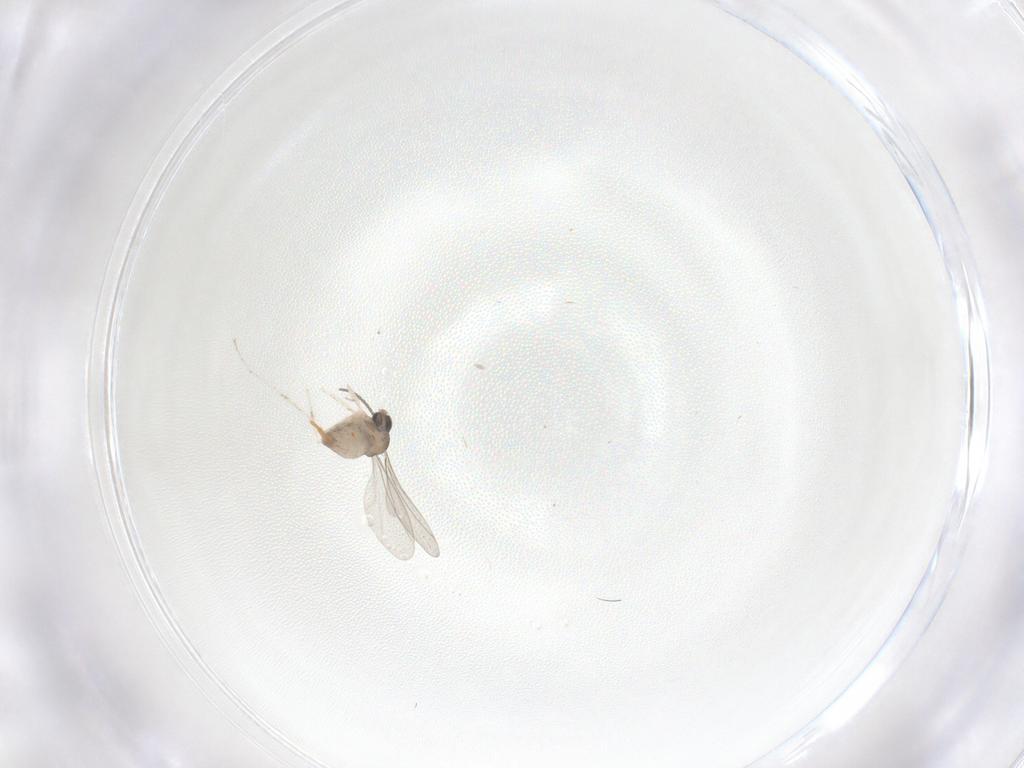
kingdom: Animalia
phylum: Arthropoda
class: Insecta
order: Diptera
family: Cecidomyiidae
